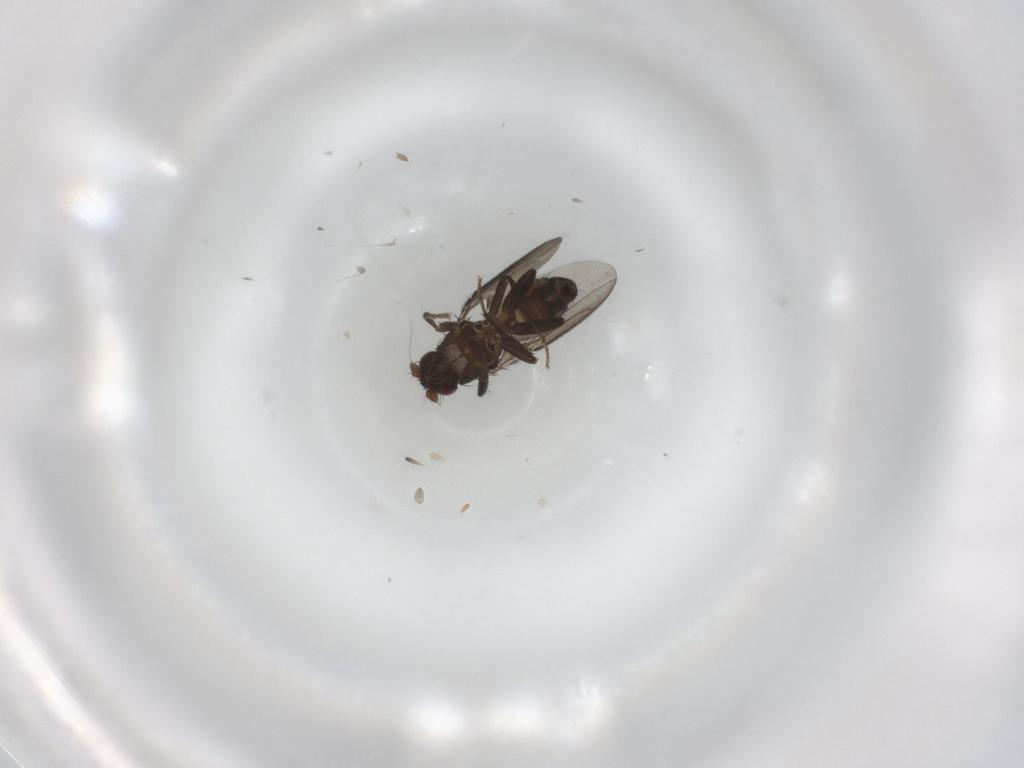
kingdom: Animalia
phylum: Arthropoda
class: Insecta
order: Diptera
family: Sphaeroceridae
